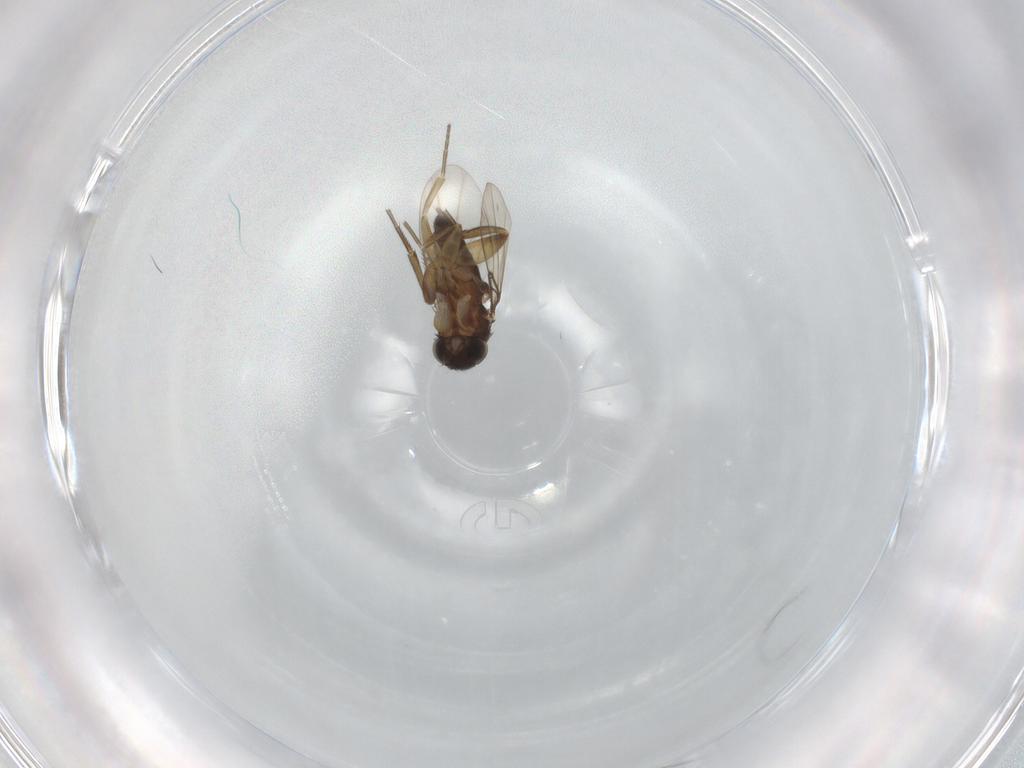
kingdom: Animalia
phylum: Arthropoda
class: Insecta
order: Diptera
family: Phoridae
